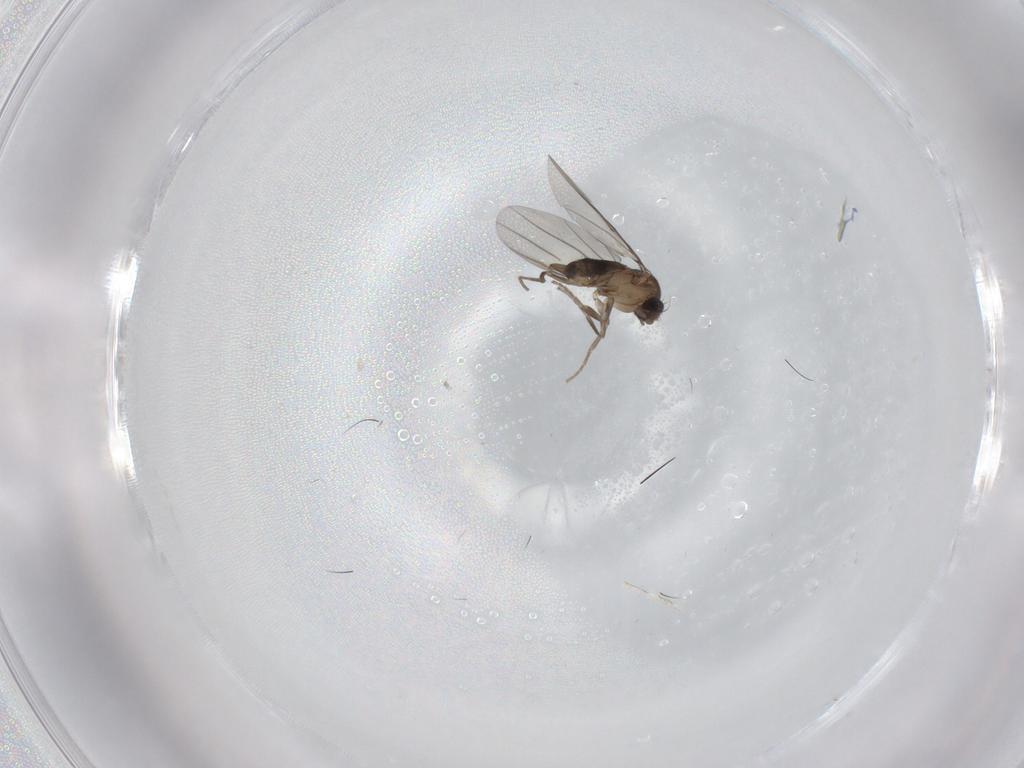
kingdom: Animalia
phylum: Arthropoda
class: Insecta
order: Diptera
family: Phoridae
